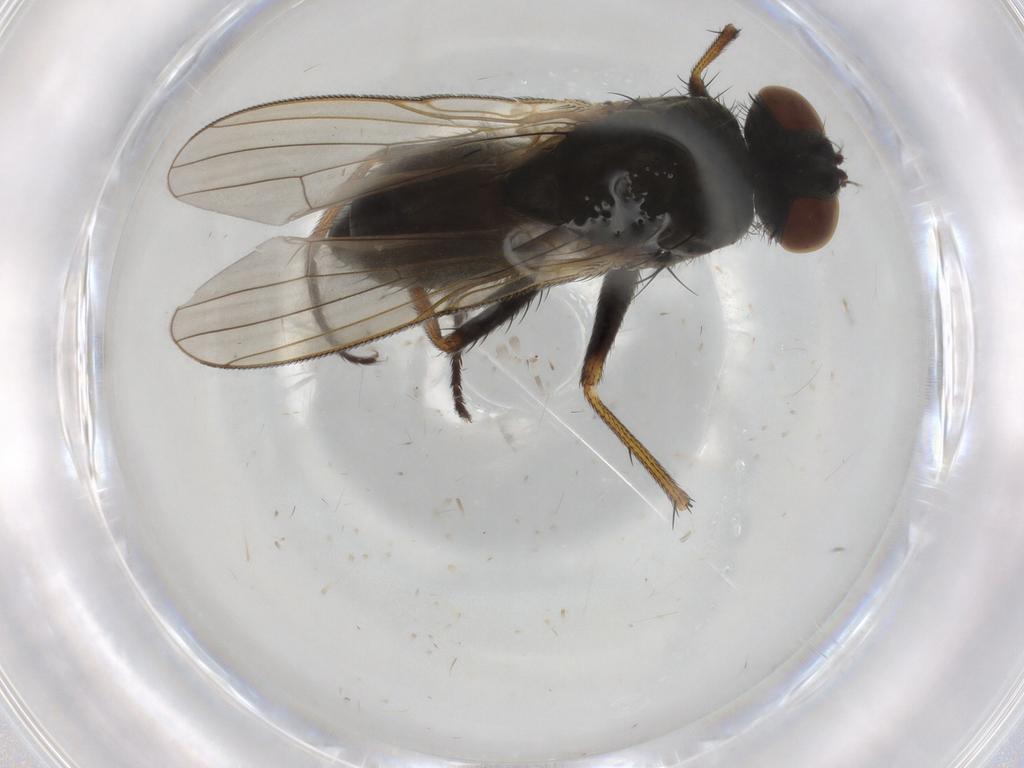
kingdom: Animalia
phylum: Arthropoda
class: Insecta
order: Diptera
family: Muscidae
